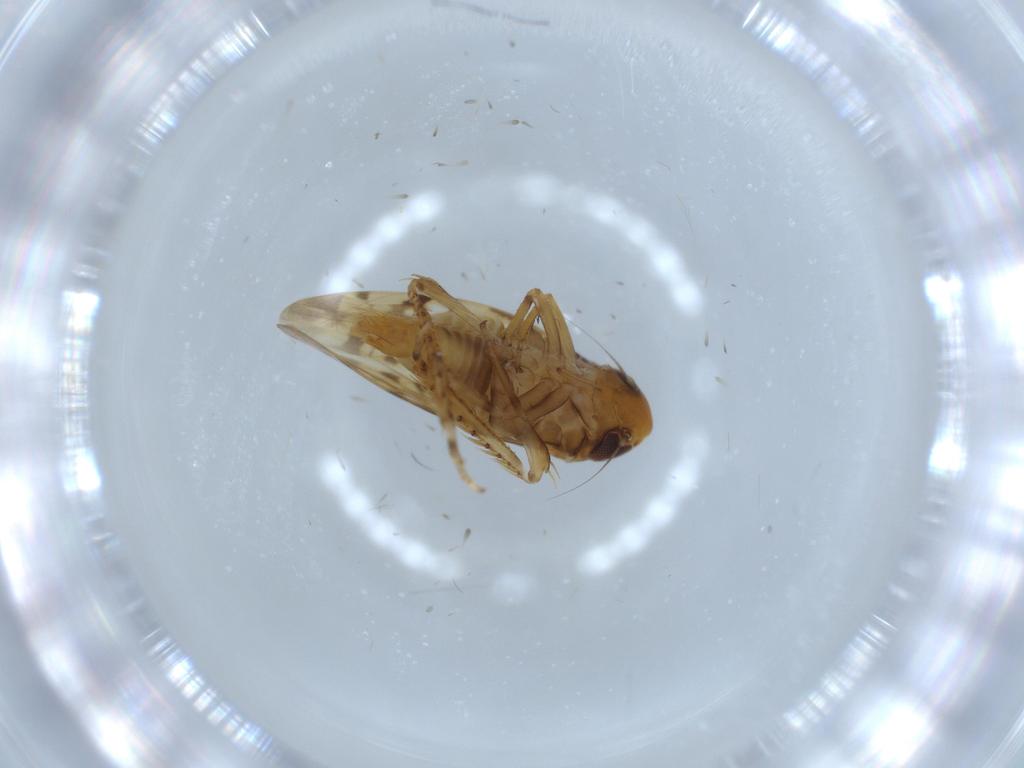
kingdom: Animalia
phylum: Arthropoda
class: Insecta
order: Hemiptera
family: Cicadellidae
